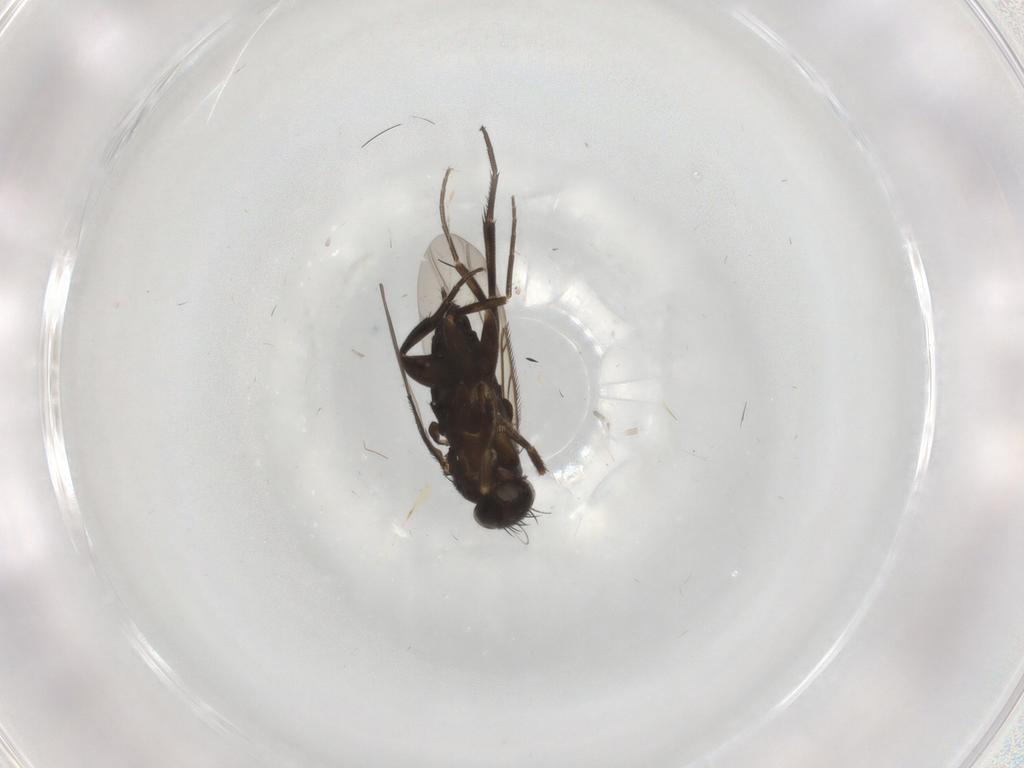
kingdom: Animalia
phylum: Arthropoda
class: Insecta
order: Diptera
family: Phoridae
